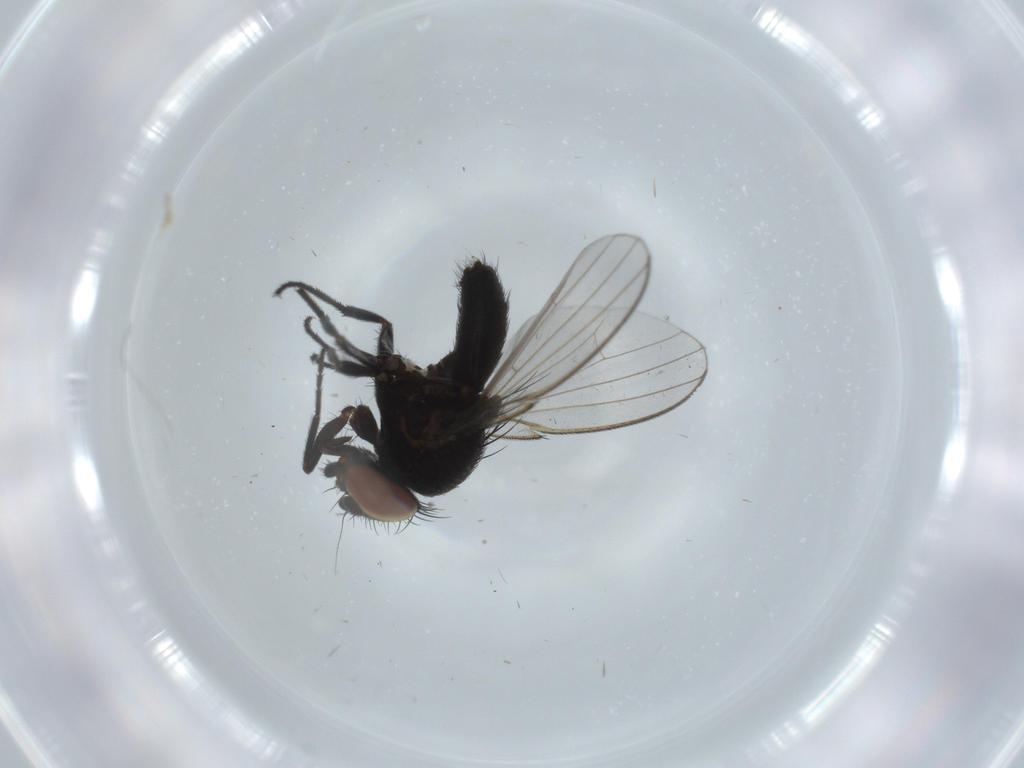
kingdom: Animalia
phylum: Arthropoda
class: Insecta
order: Diptera
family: Milichiidae
